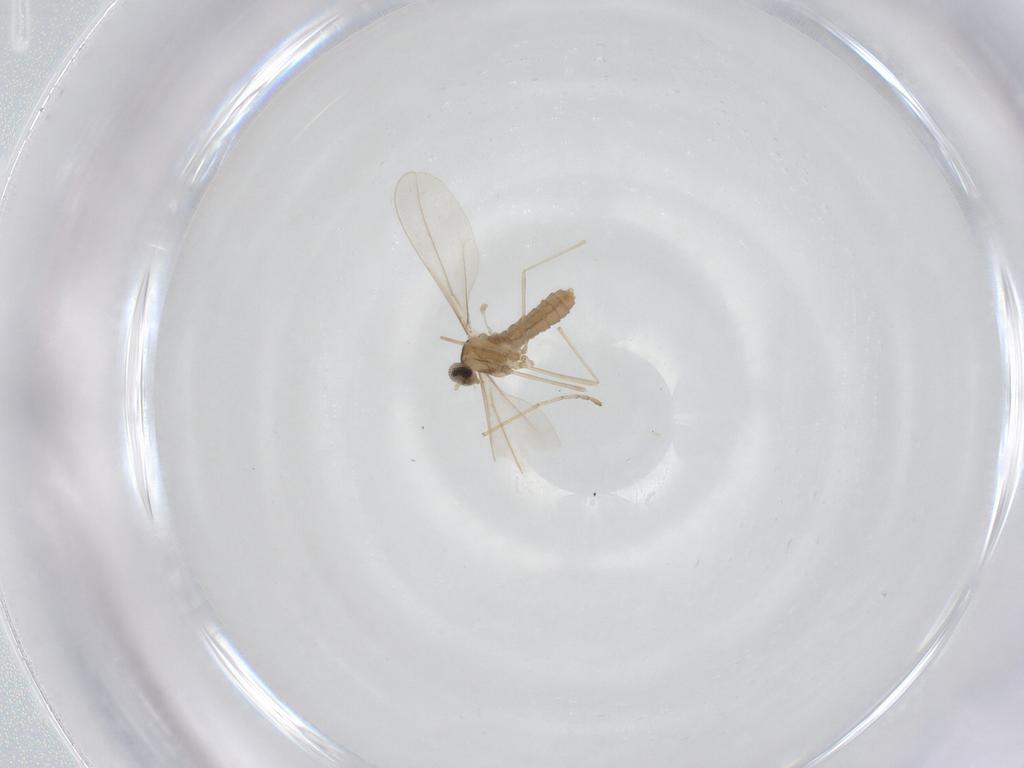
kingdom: Animalia
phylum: Arthropoda
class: Insecta
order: Diptera
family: Cecidomyiidae
